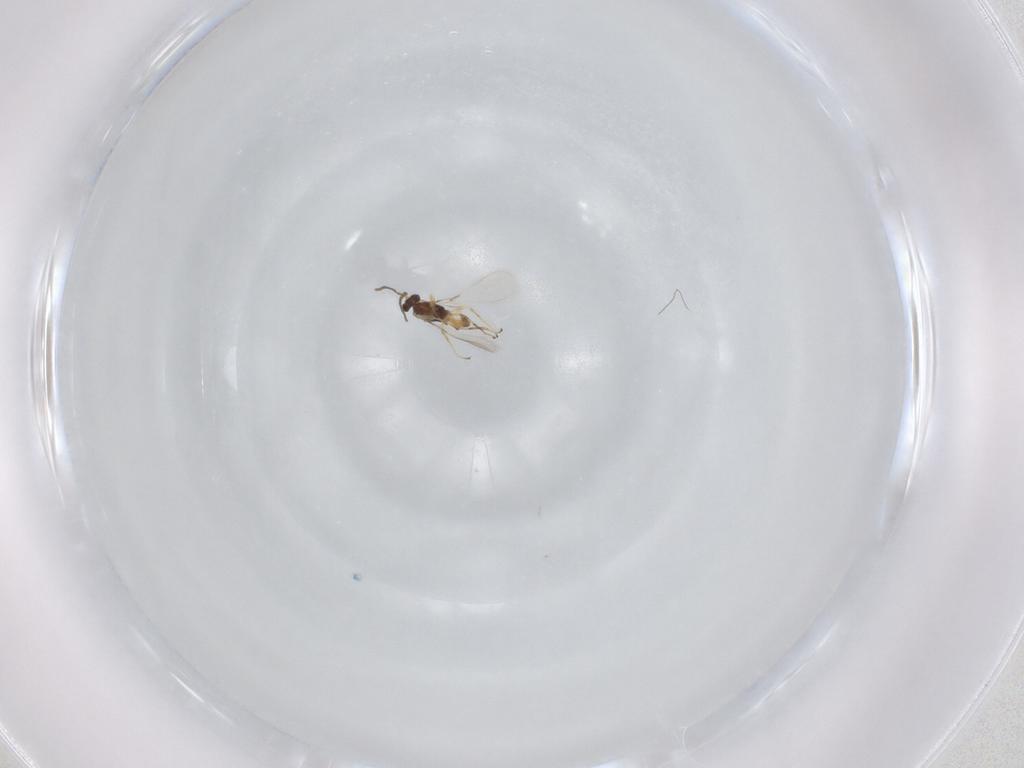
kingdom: Animalia
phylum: Arthropoda
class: Insecta
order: Hymenoptera
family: Mymaridae
